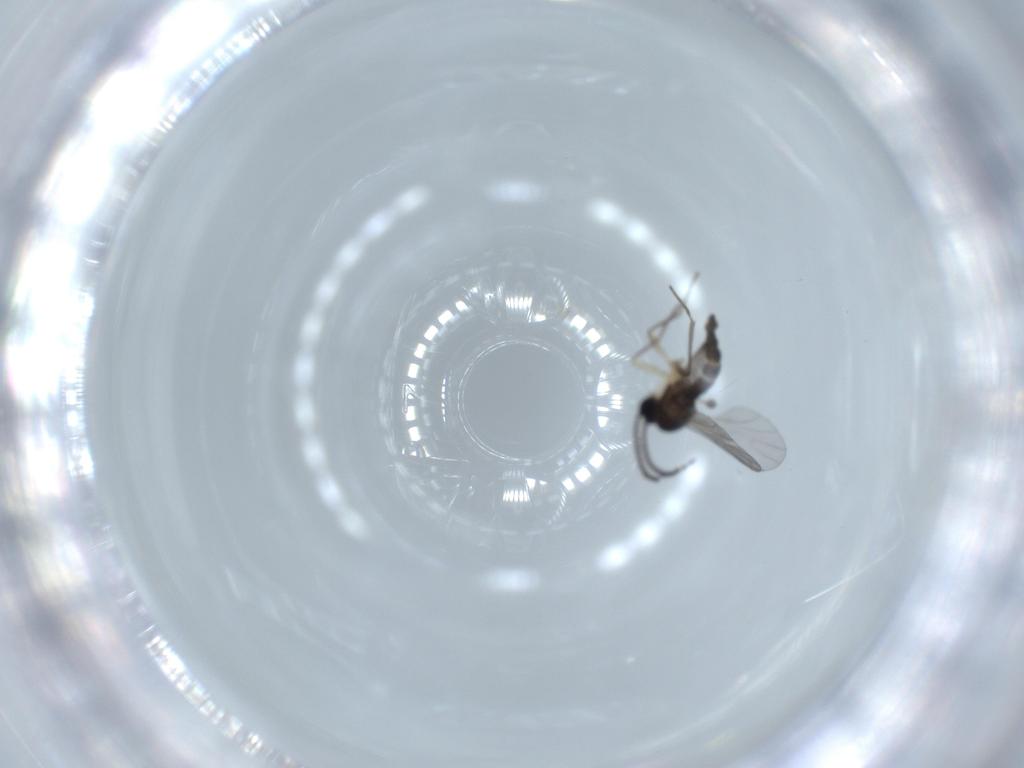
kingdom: Animalia
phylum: Arthropoda
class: Insecta
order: Diptera
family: Sciaridae
